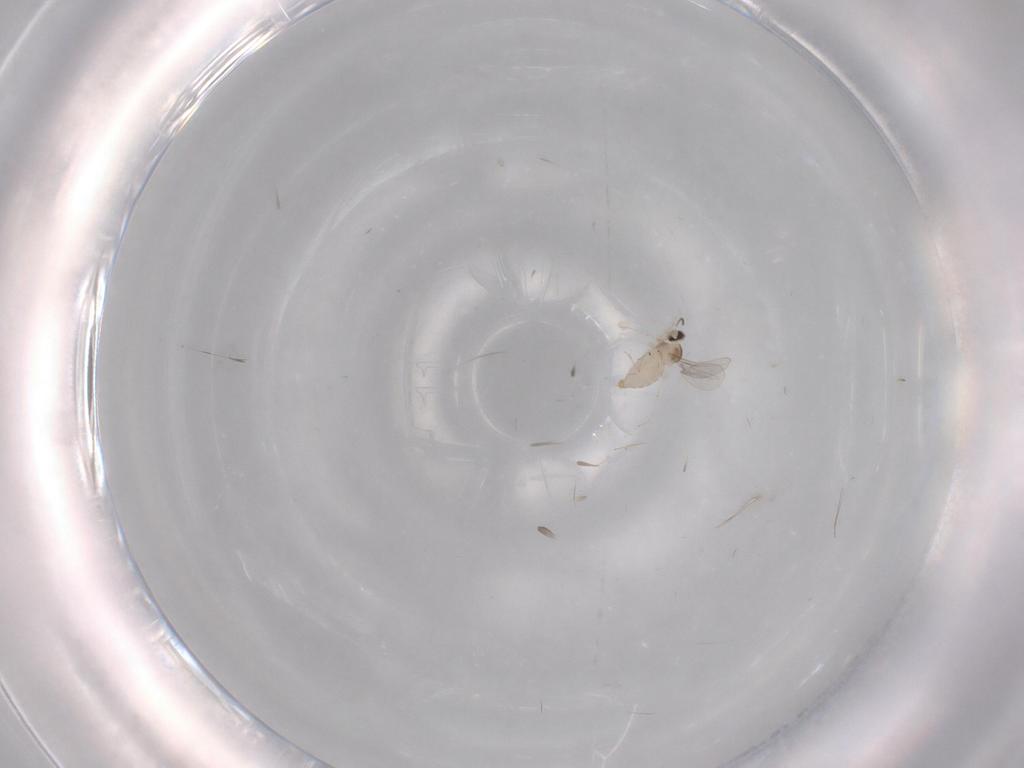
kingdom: Animalia
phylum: Arthropoda
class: Insecta
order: Diptera
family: Cecidomyiidae
